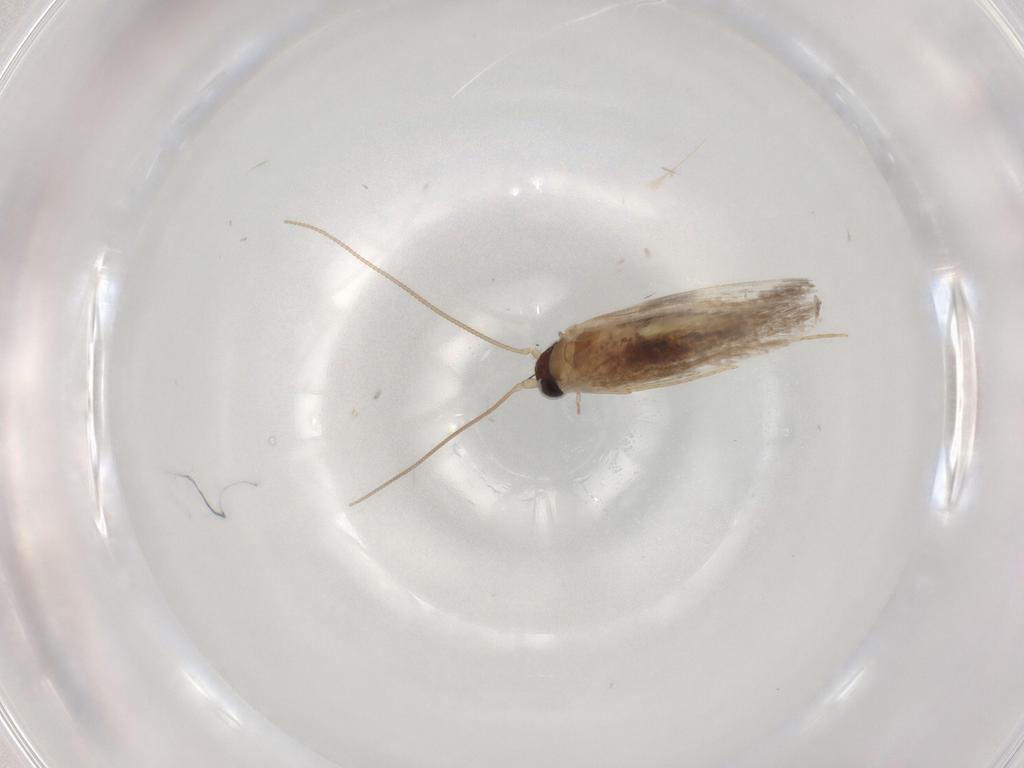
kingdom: Animalia
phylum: Arthropoda
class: Insecta
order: Lepidoptera
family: Tineidae
